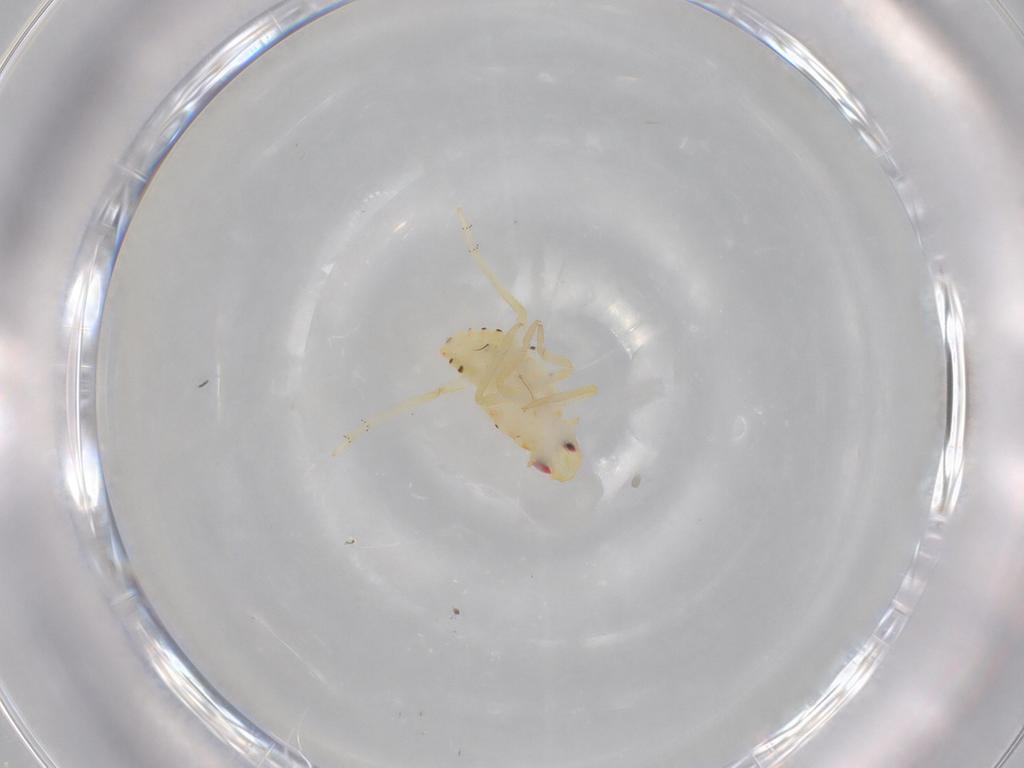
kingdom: Animalia
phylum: Arthropoda
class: Insecta
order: Hemiptera
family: Tropiduchidae
